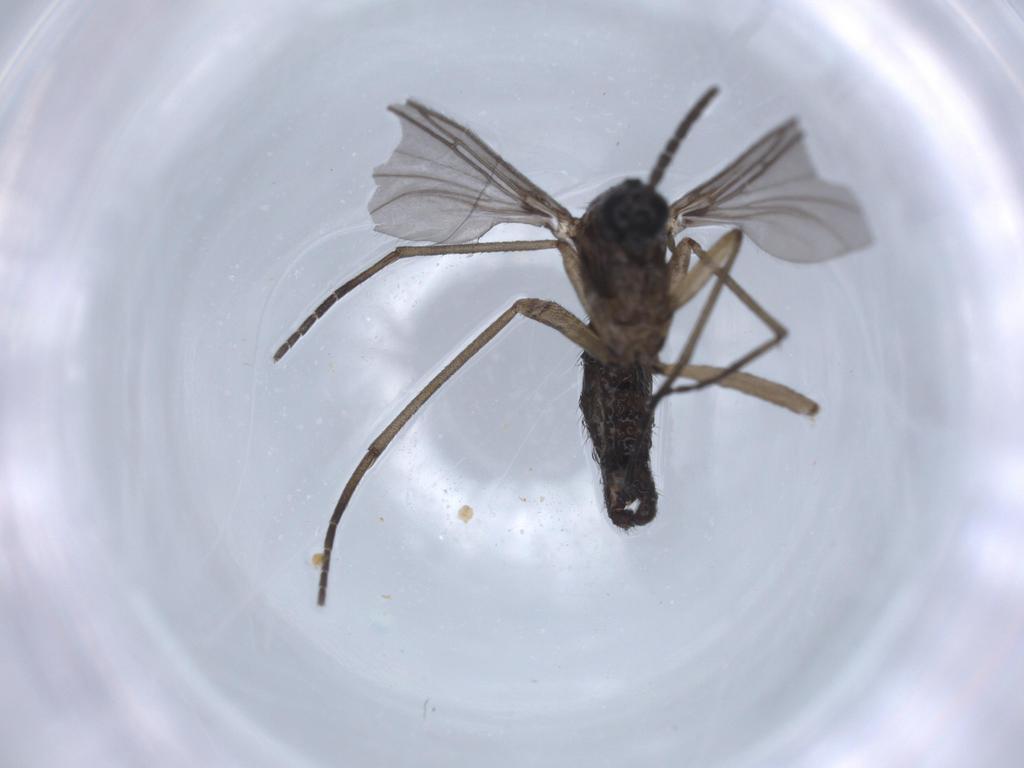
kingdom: Animalia
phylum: Arthropoda
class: Insecta
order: Diptera
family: Sciaridae
